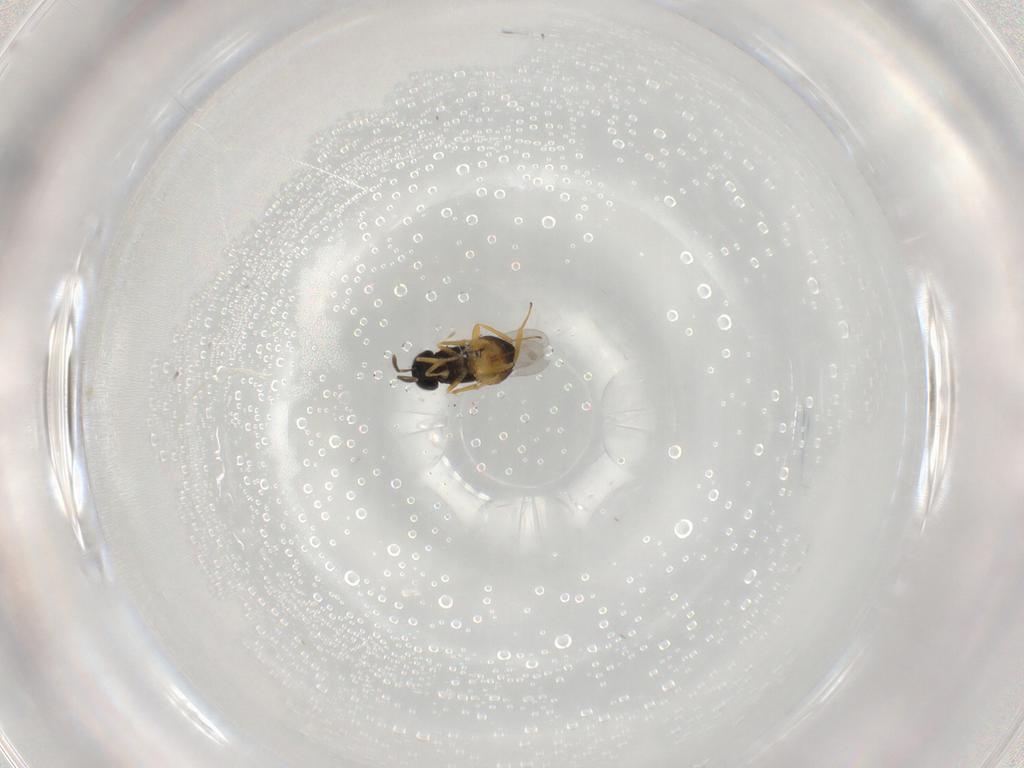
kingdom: Animalia
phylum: Arthropoda
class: Insecta
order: Hymenoptera
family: Encyrtidae
